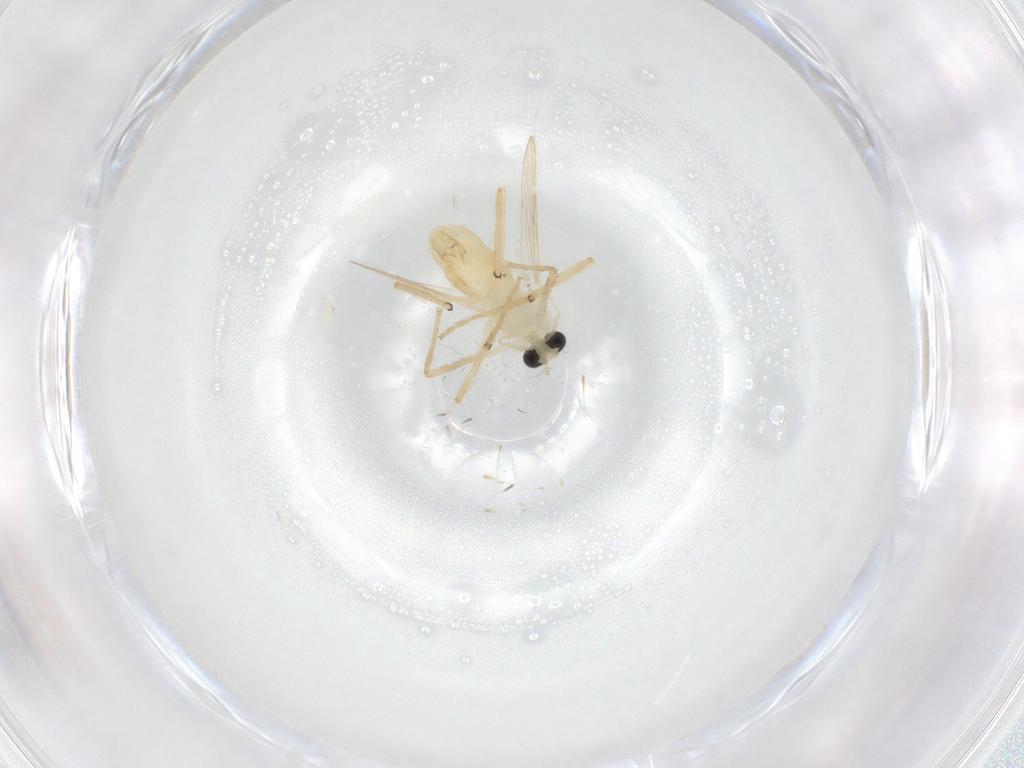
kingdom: Animalia
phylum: Arthropoda
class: Insecta
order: Diptera
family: Chironomidae
